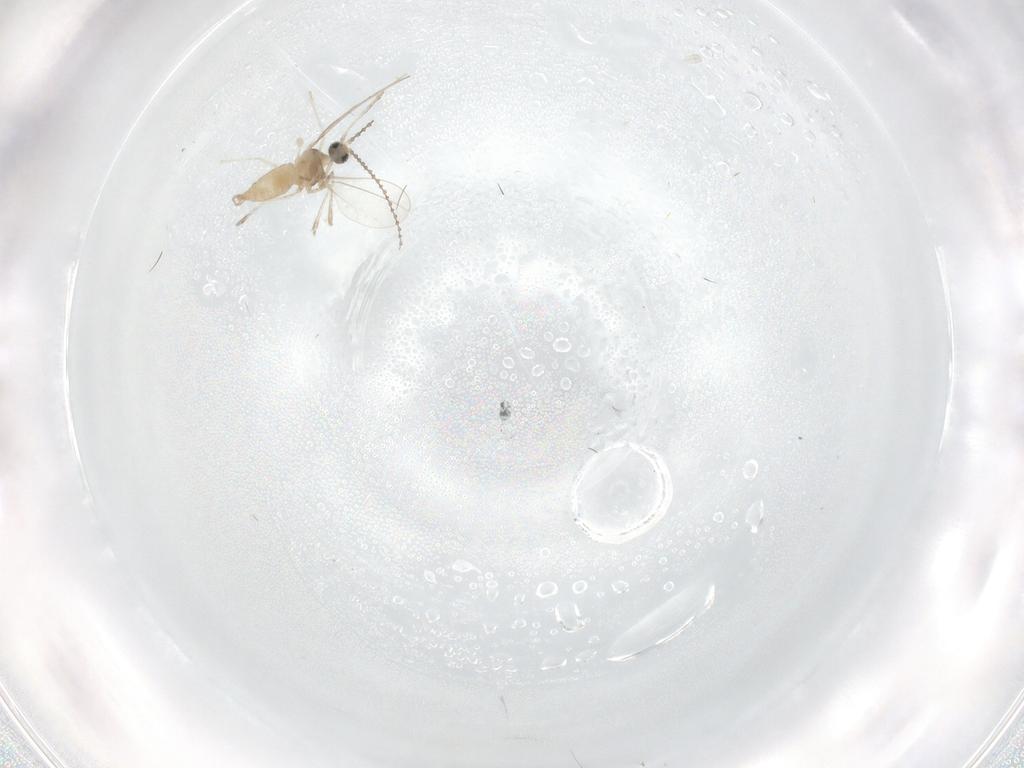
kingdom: Animalia
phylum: Arthropoda
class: Insecta
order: Diptera
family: Cecidomyiidae
